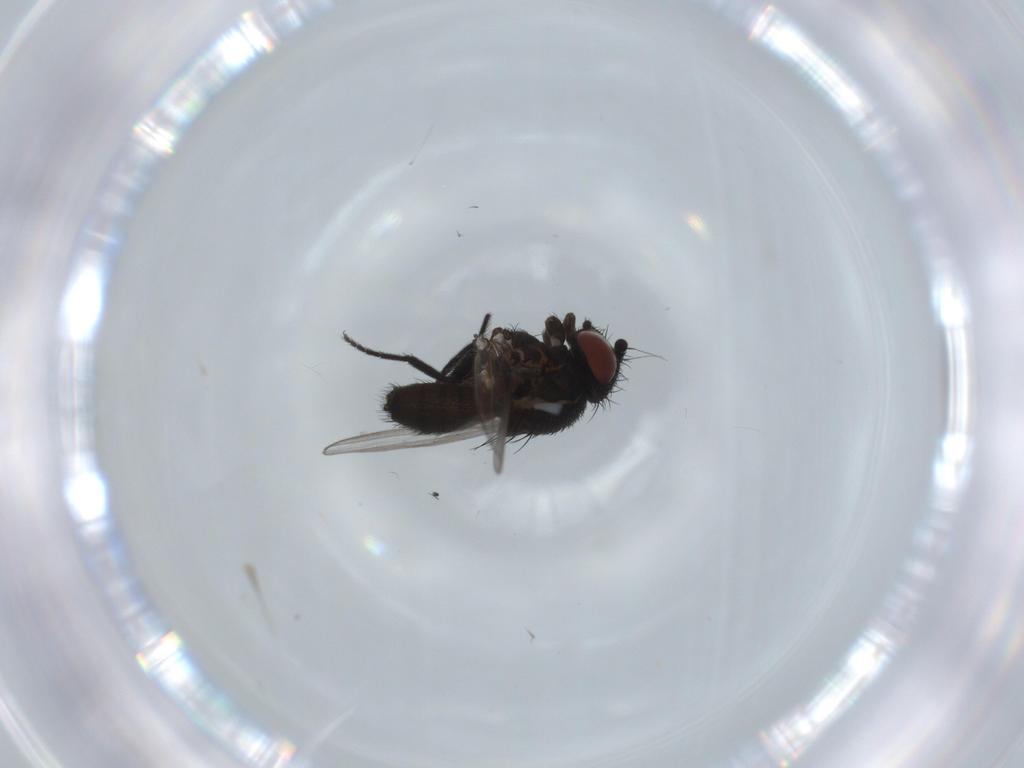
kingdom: Animalia
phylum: Arthropoda
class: Insecta
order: Diptera
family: Milichiidae
